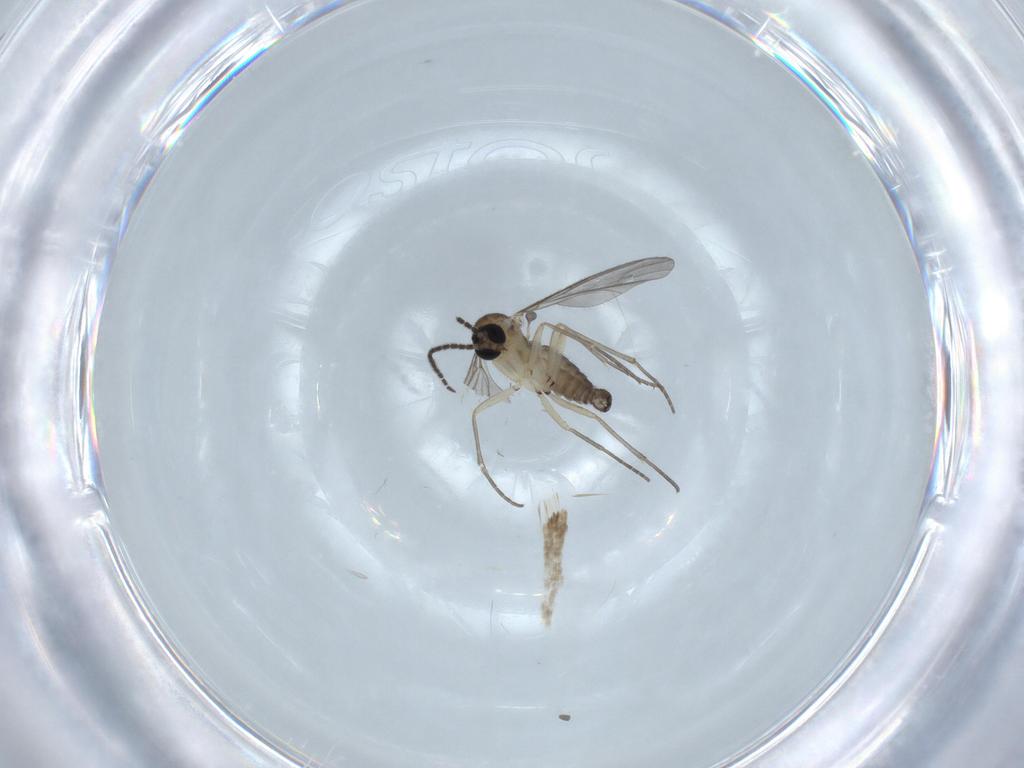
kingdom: Animalia
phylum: Arthropoda
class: Insecta
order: Diptera
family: Sciaridae
